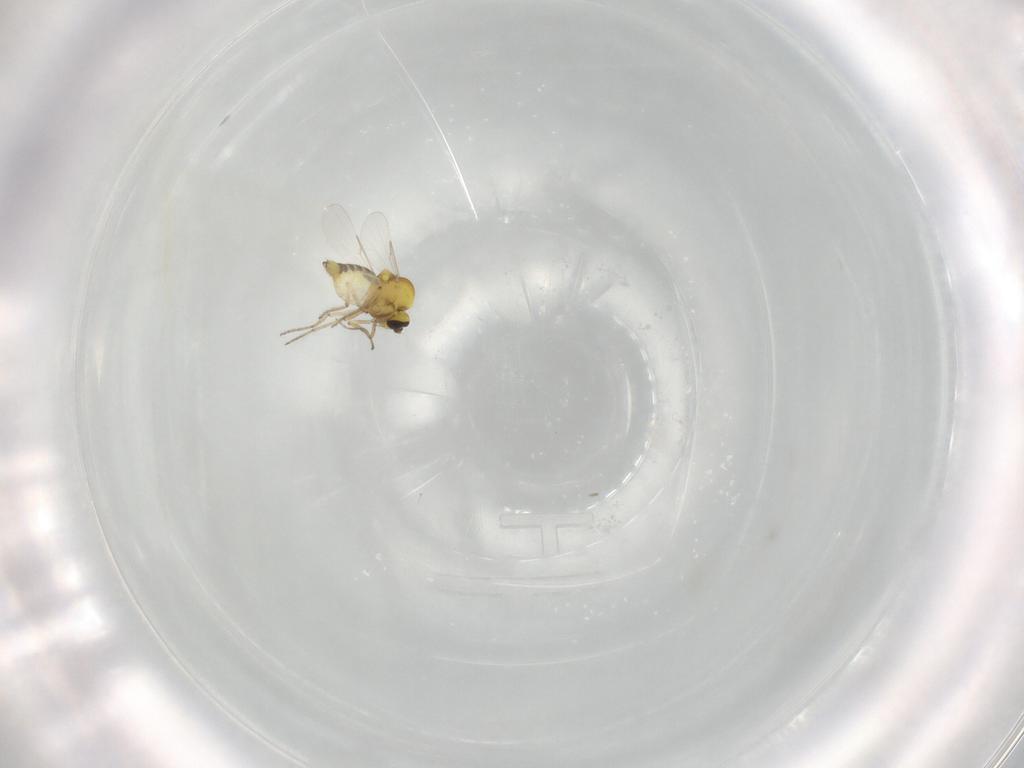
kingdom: Animalia
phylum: Arthropoda
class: Insecta
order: Diptera
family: Ceratopogonidae
